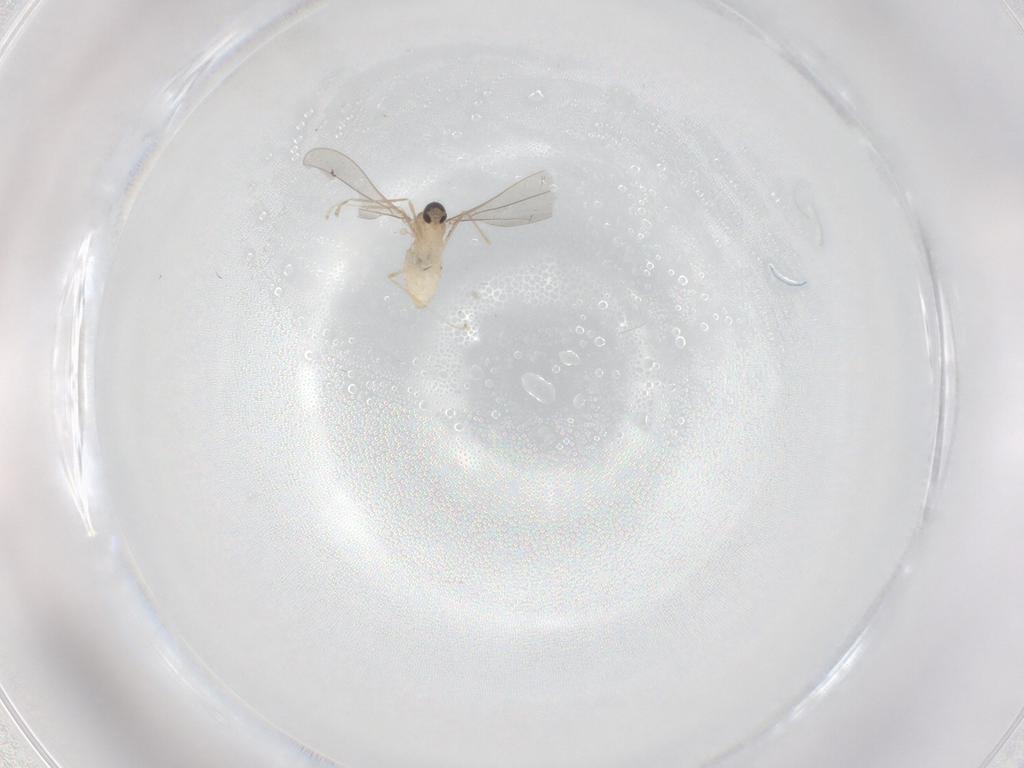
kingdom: Animalia
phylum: Arthropoda
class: Insecta
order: Diptera
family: Cecidomyiidae
